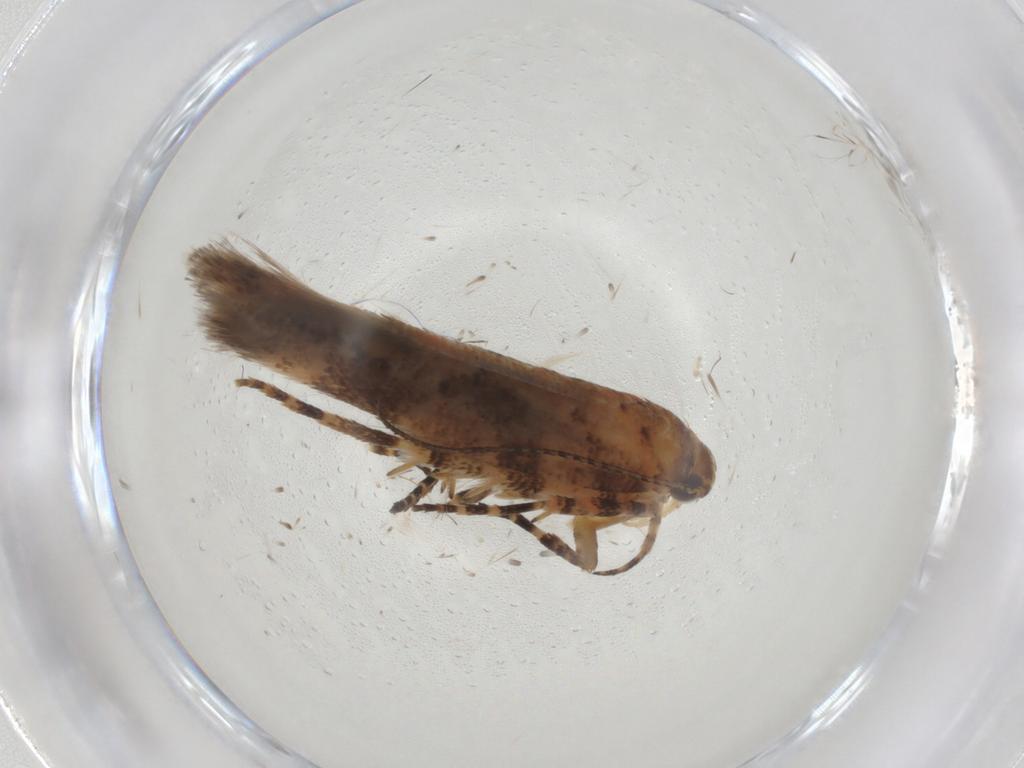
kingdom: Animalia
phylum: Arthropoda
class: Insecta
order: Lepidoptera
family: Gelechiidae
